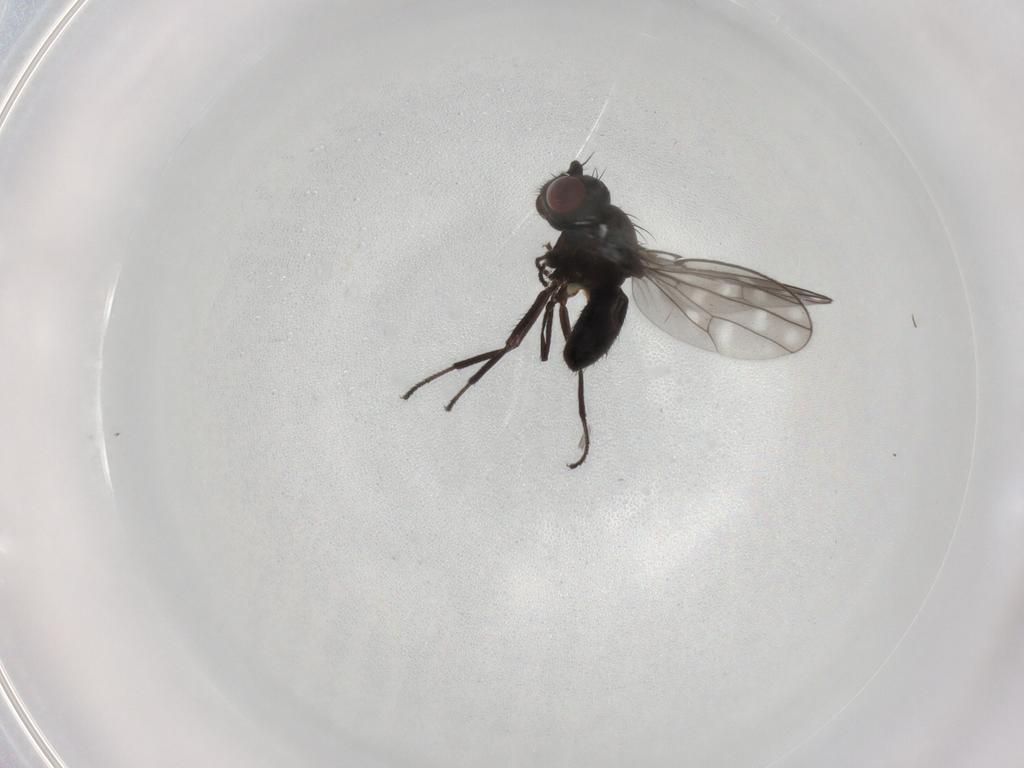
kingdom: Animalia
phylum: Arthropoda
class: Insecta
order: Diptera
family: Ephydridae
